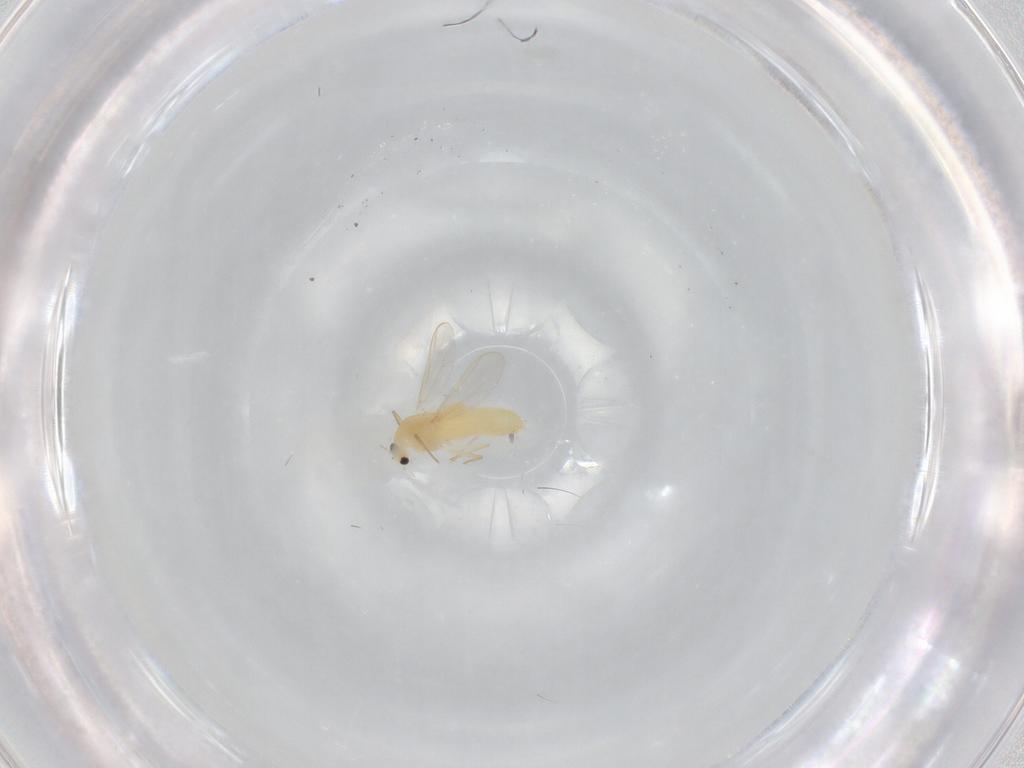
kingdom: Animalia
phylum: Arthropoda
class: Insecta
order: Diptera
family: Chironomidae
